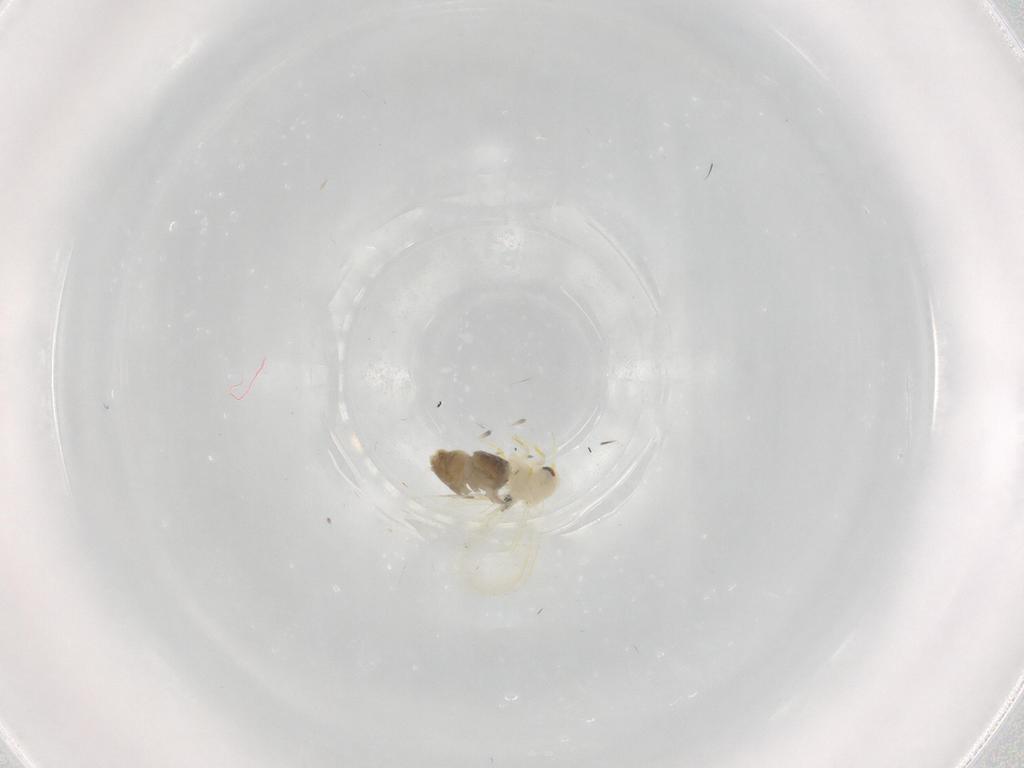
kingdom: Animalia
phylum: Arthropoda
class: Insecta
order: Hemiptera
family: Aleyrodidae
